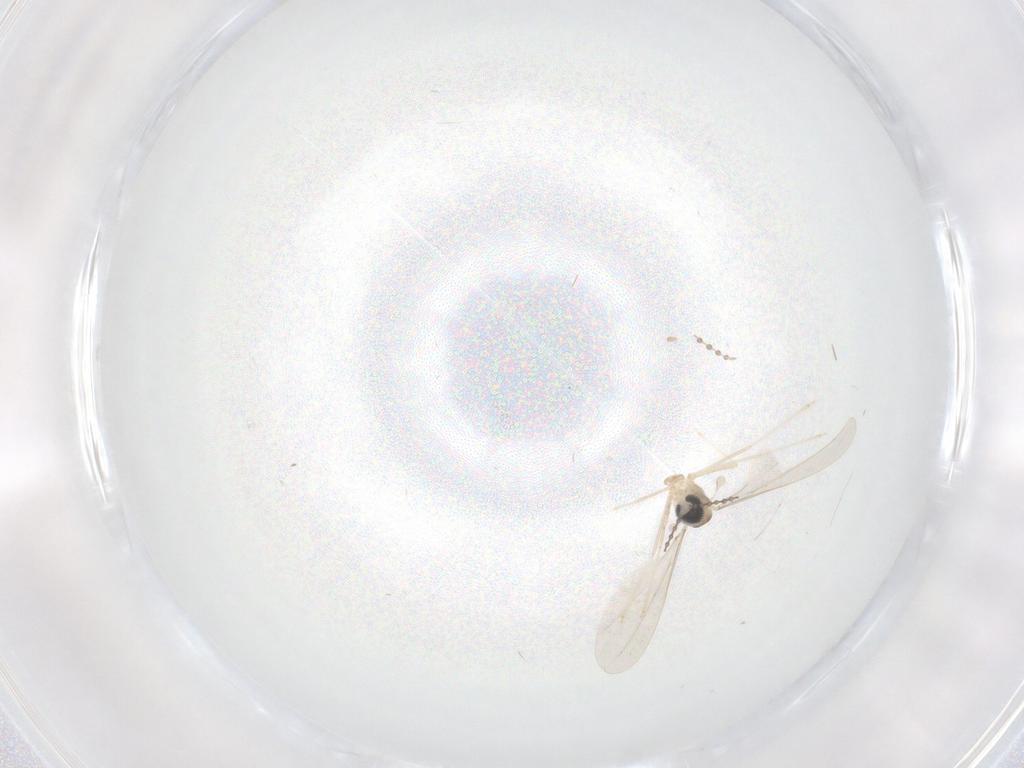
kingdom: Animalia
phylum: Arthropoda
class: Insecta
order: Diptera
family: Cecidomyiidae
